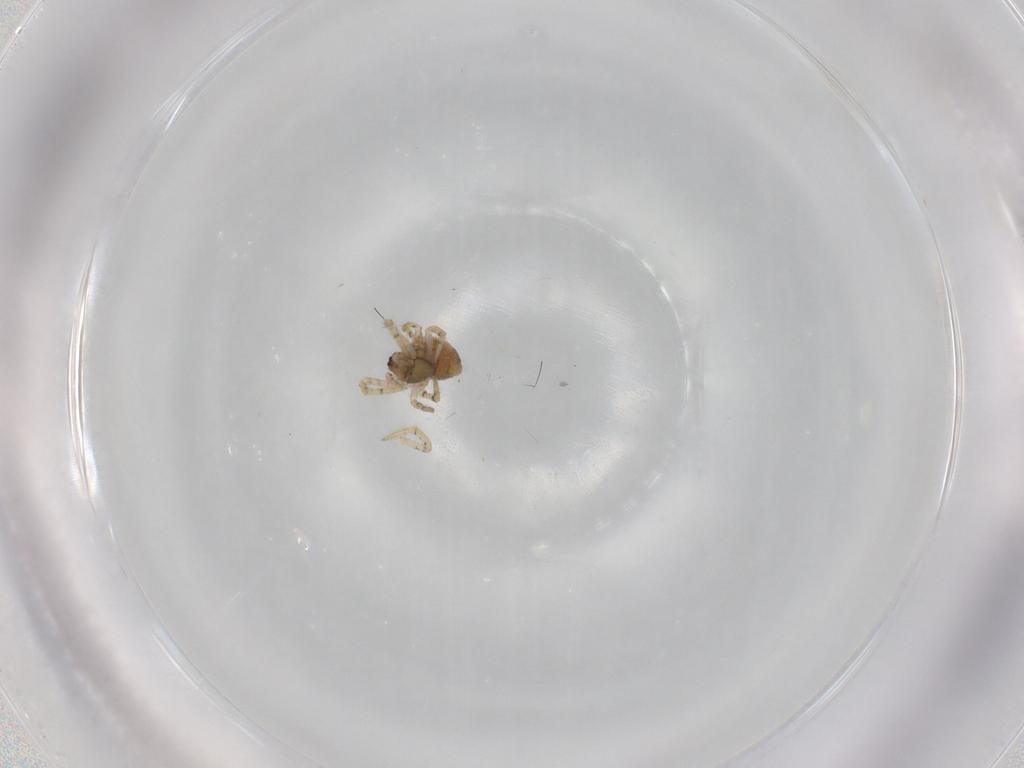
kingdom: Animalia
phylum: Arthropoda
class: Arachnida
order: Araneae
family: Theridiidae
